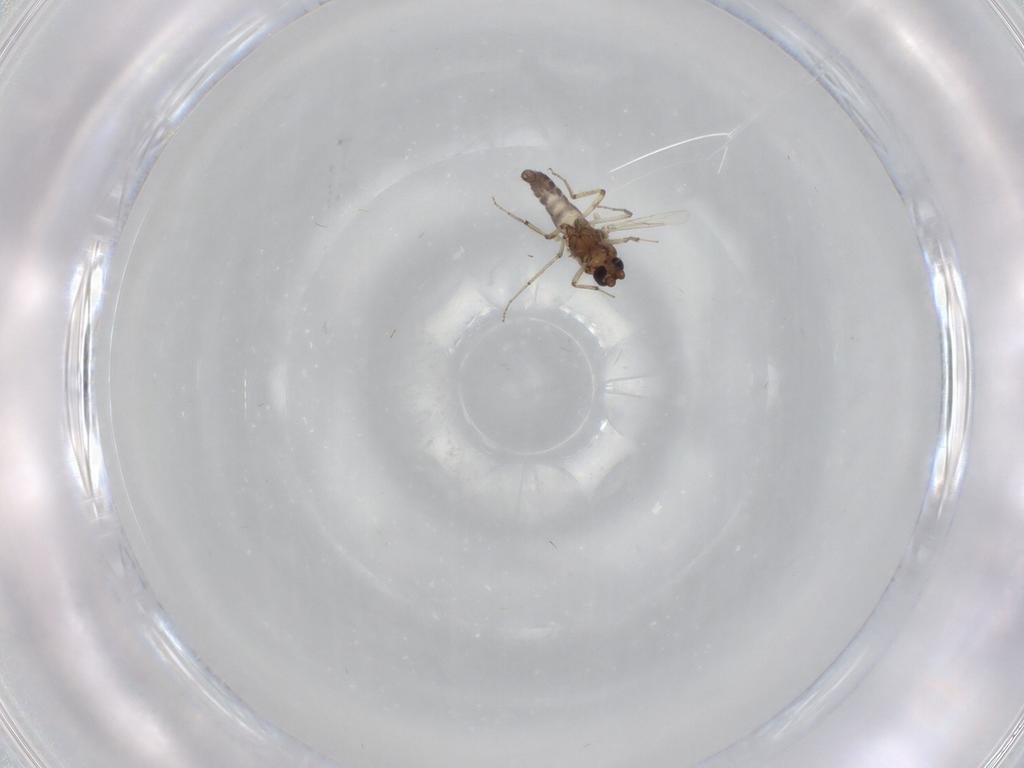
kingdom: Animalia
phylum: Arthropoda
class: Insecta
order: Diptera
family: Ceratopogonidae
